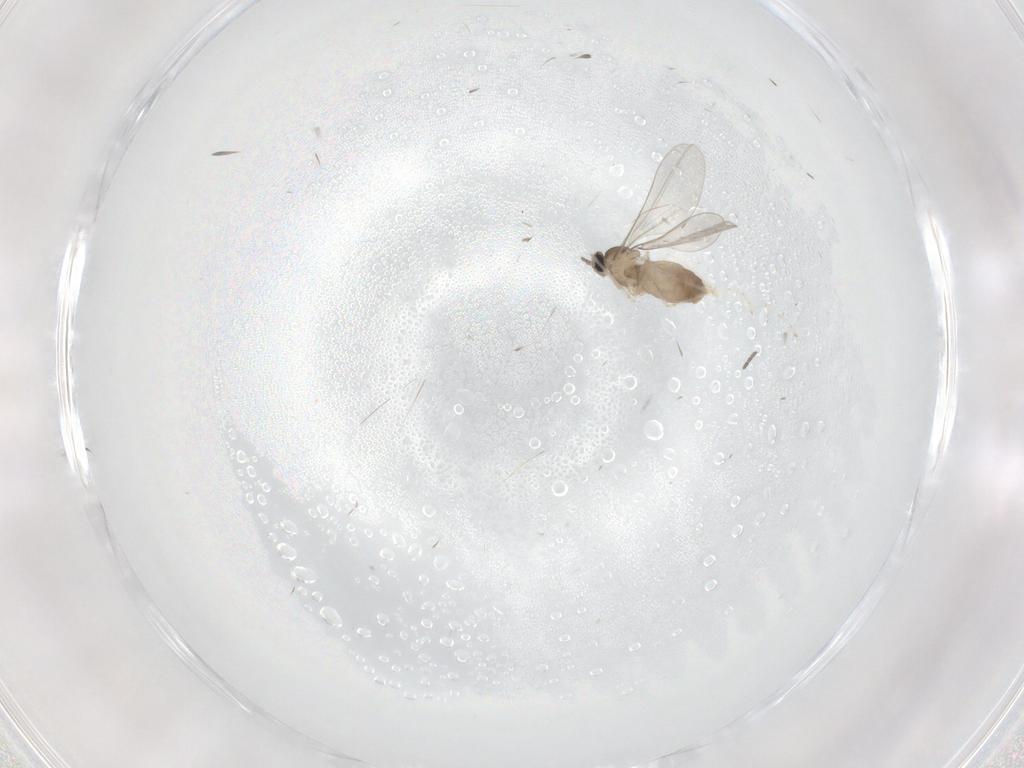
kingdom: Animalia
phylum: Arthropoda
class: Insecta
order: Diptera
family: Cecidomyiidae
